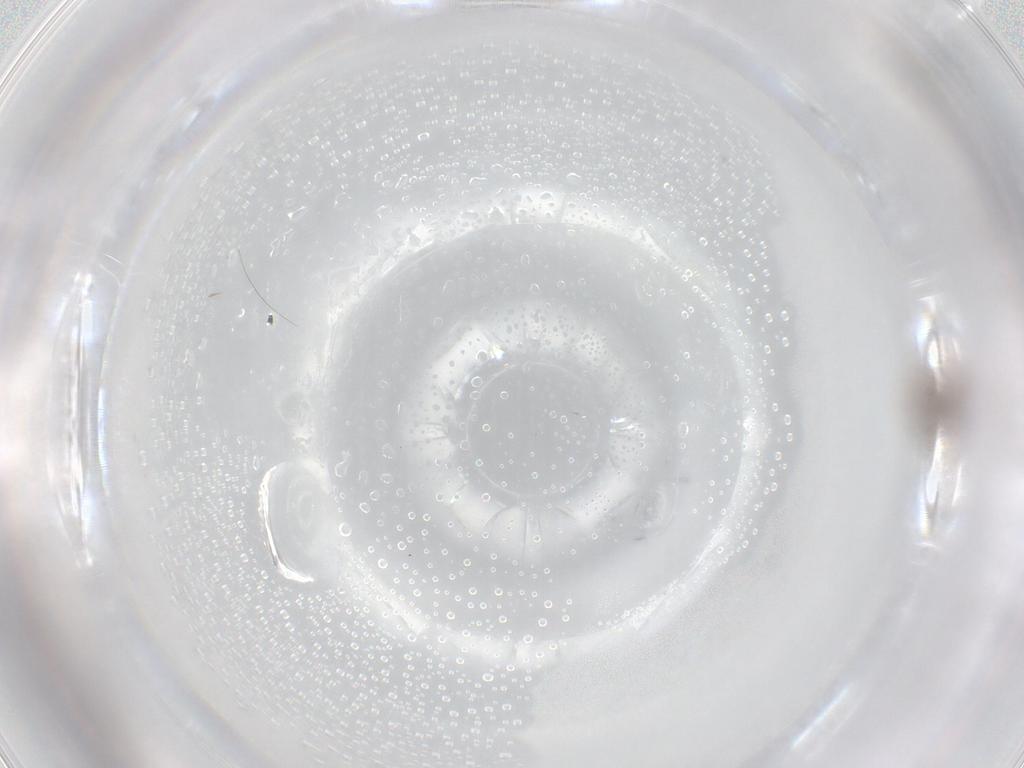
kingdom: Animalia
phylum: Arthropoda
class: Insecta
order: Hemiptera
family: Aphididae
